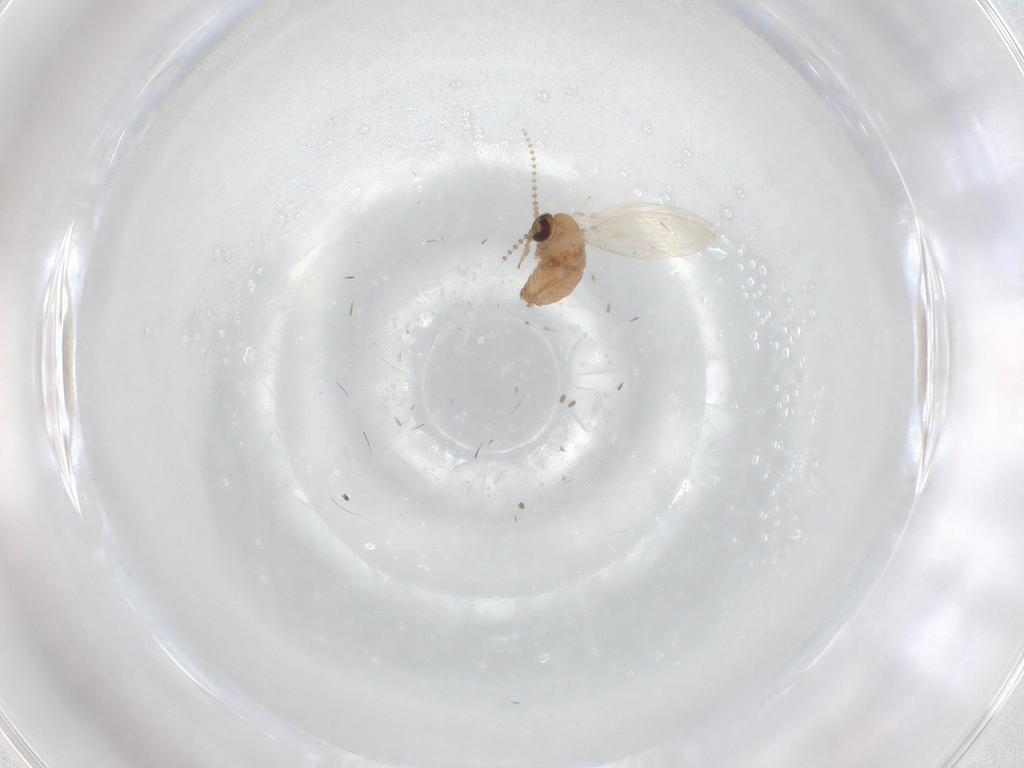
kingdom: Animalia
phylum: Arthropoda
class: Insecta
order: Diptera
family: Psychodidae
